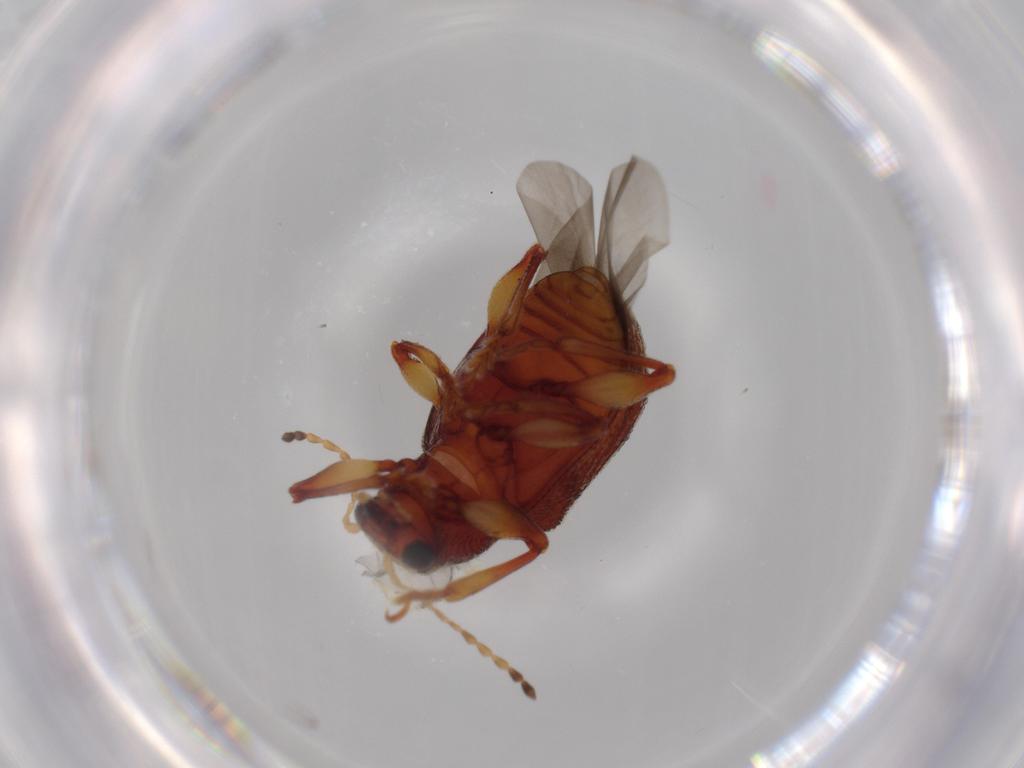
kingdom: Animalia
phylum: Arthropoda
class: Insecta
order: Coleoptera
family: Chrysomelidae
